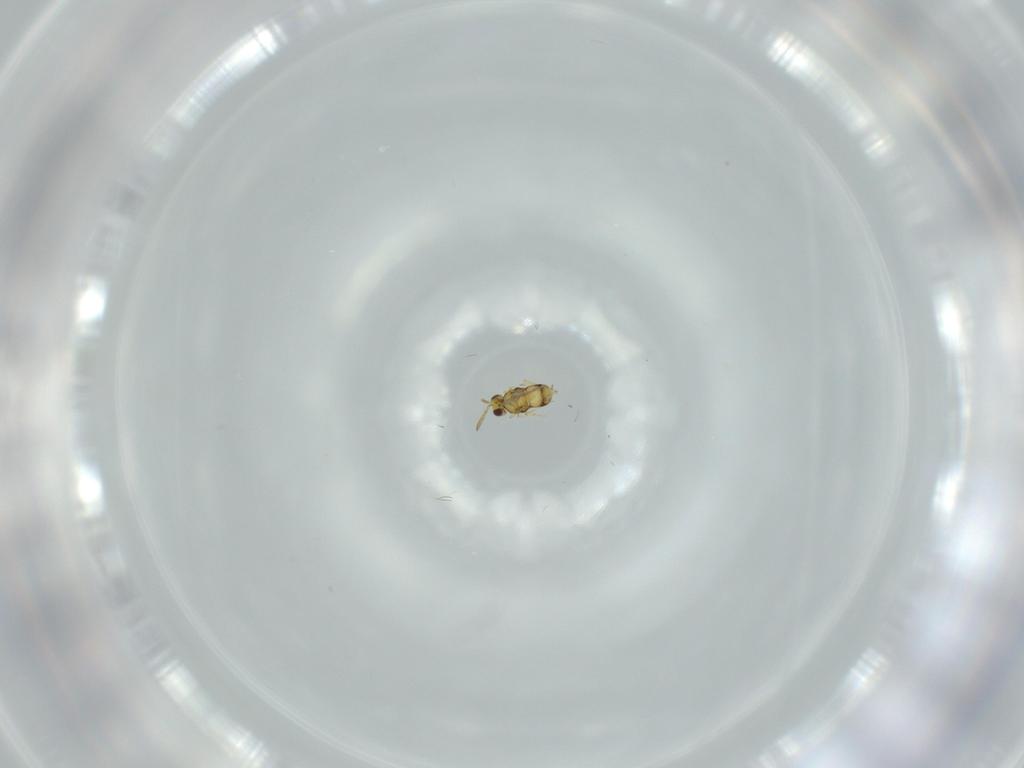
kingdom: Animalia
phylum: Arthropoda
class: Insecta
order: Hymenoptera
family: Aphelinidae
